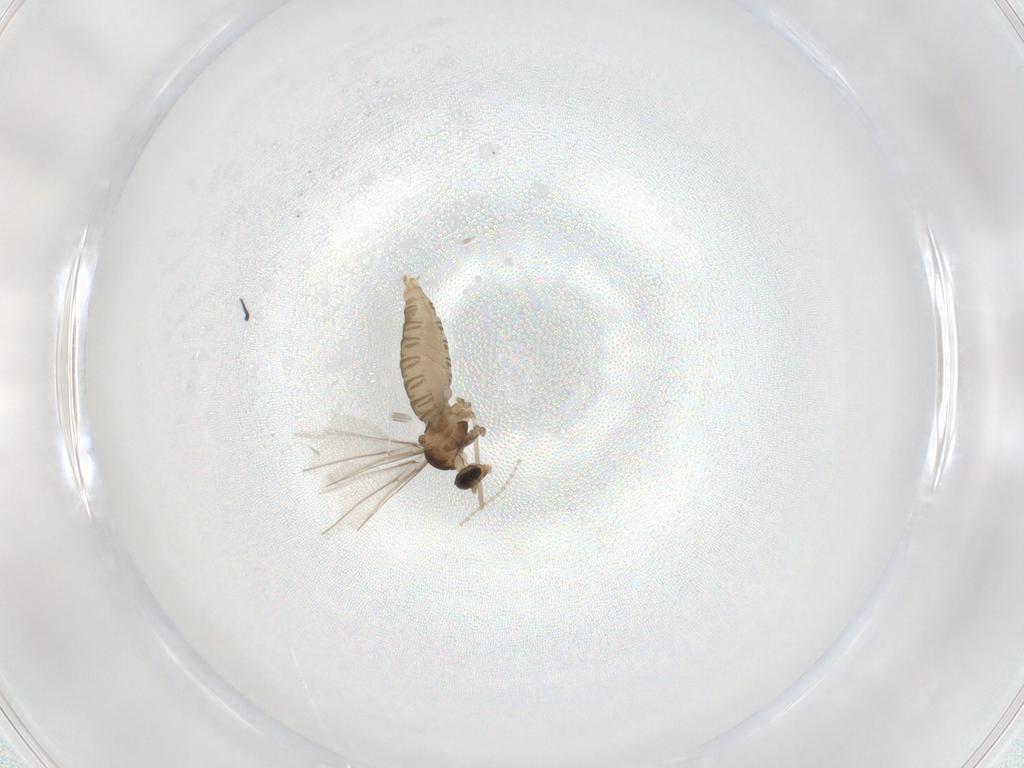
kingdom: Animalia
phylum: Arthropoda
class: Insecta
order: Diptera
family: Cecidomyiidae
